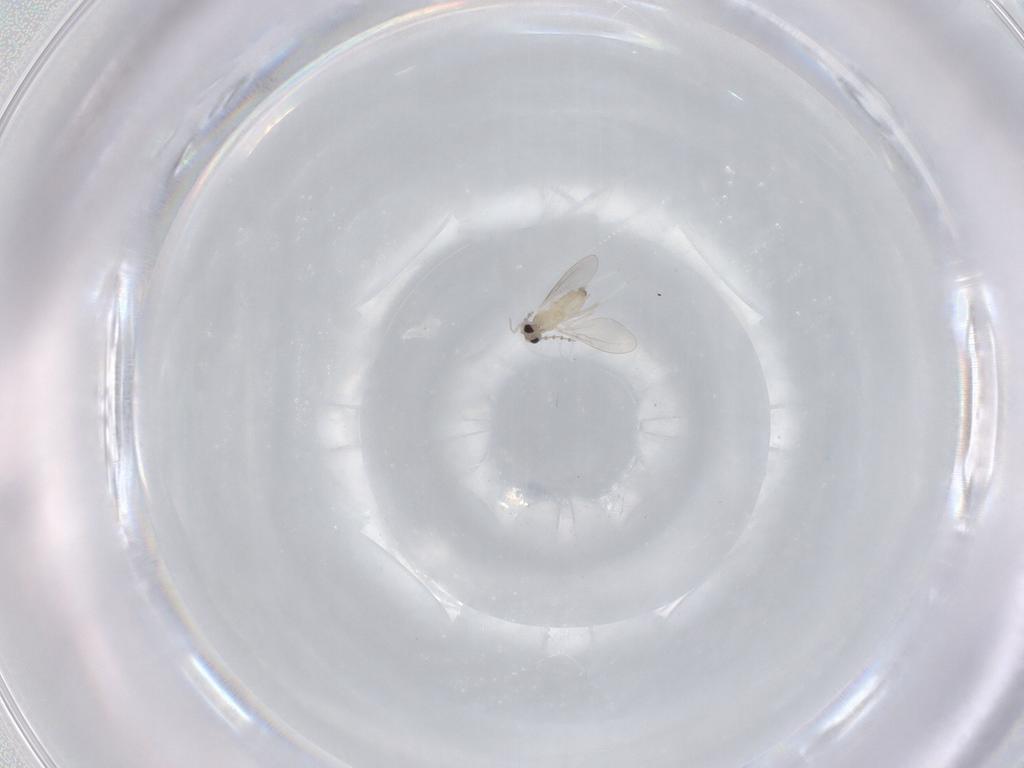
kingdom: Animalia
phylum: Arthropoda
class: Insecta
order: Diptera
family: Cecidomyiidae
